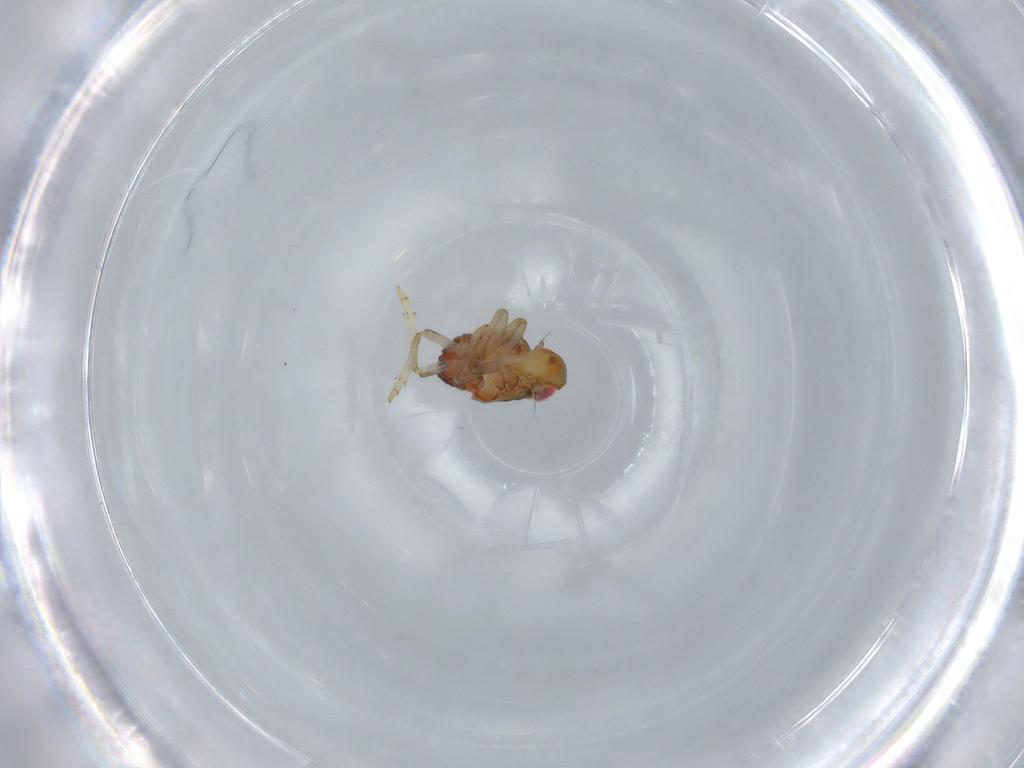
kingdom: Animalia
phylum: Arthropoda
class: Insecta
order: Hemiptera
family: Issidae
